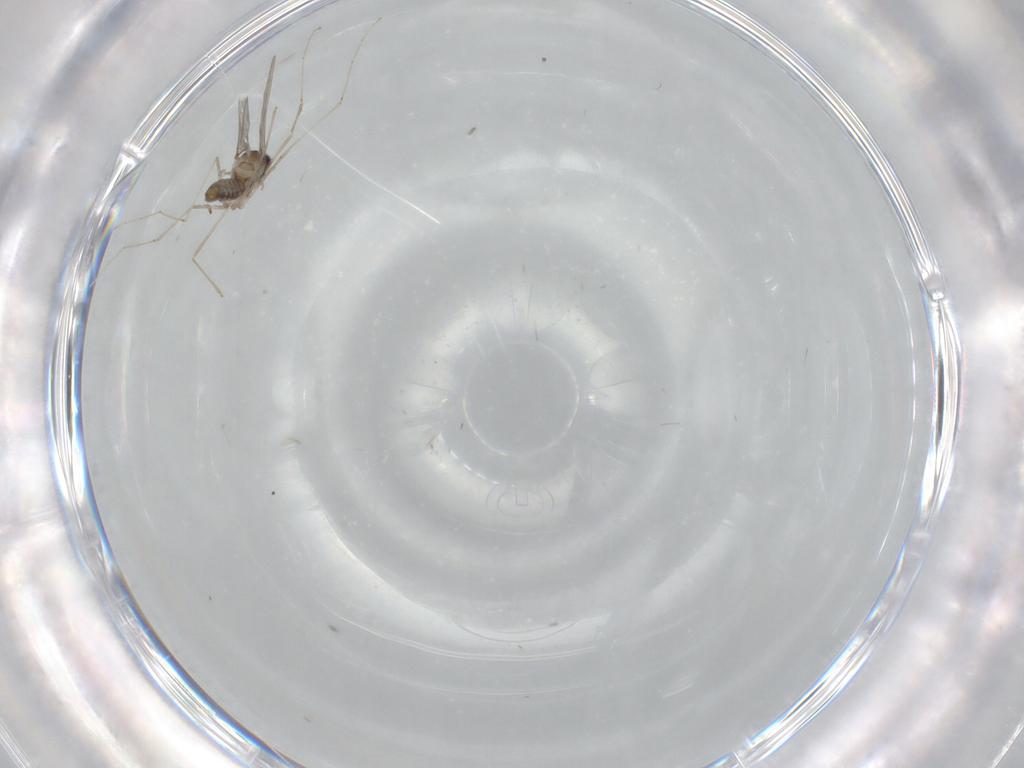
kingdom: Animalia
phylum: Arthropoda
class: Insecta
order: Diptera
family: Cecidomyiidae
